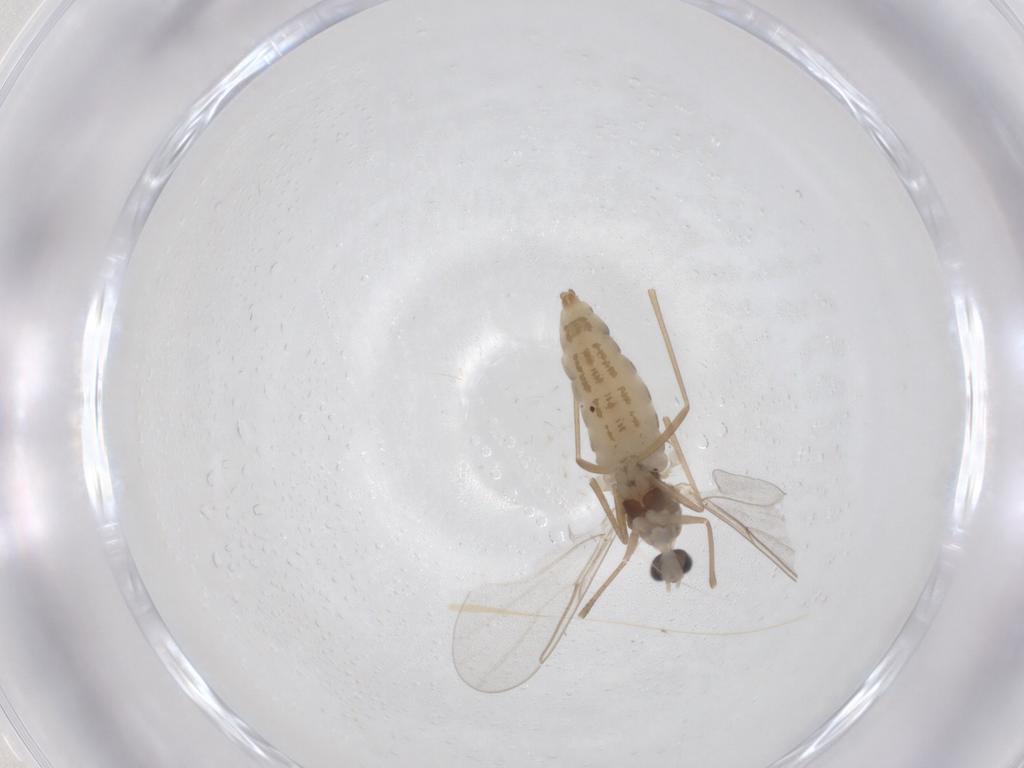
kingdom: Animalia
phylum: Arthropoda
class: Insecta
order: Diptera
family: Cecidomyiidae
